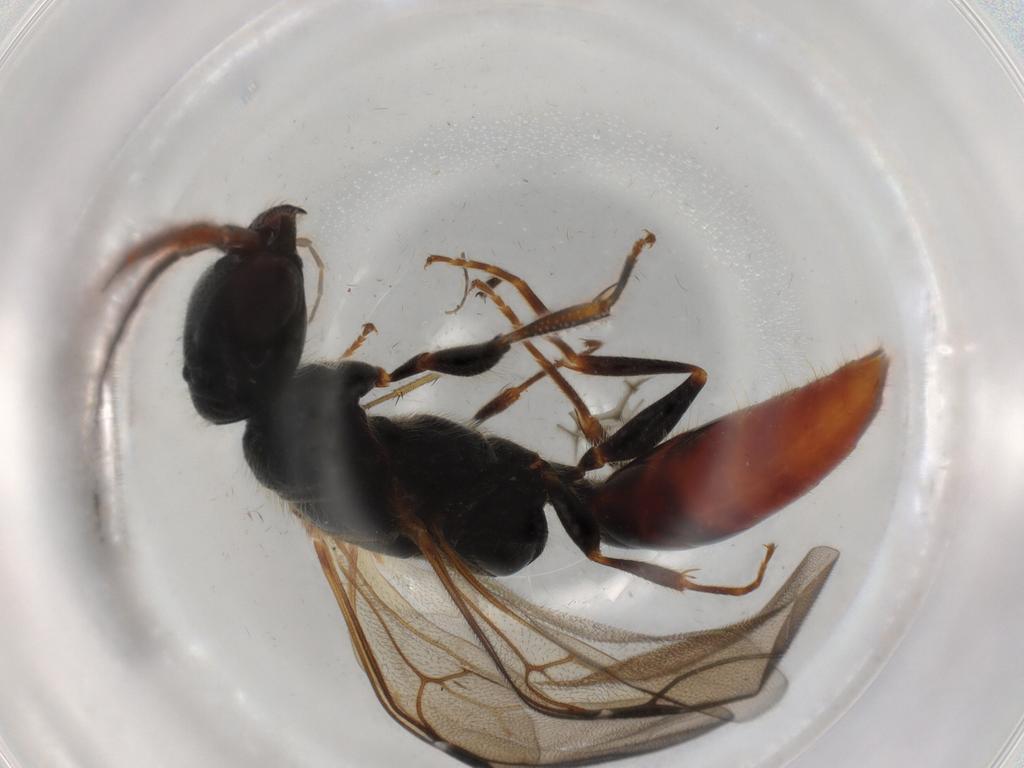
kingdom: Animalia
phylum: Arthropoda
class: Insecta
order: Hymenoptera
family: Bethylidae
